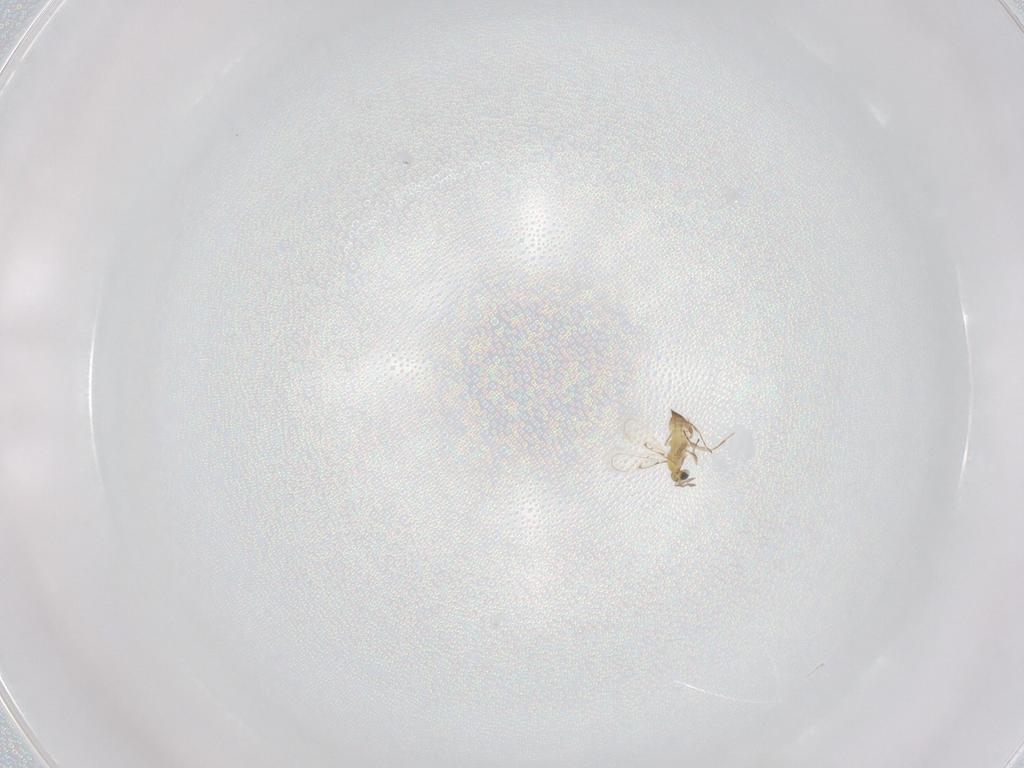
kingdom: Animalia
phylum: Arthropoda
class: Insecta
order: Hymenoptera
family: Trichogrammatidae
